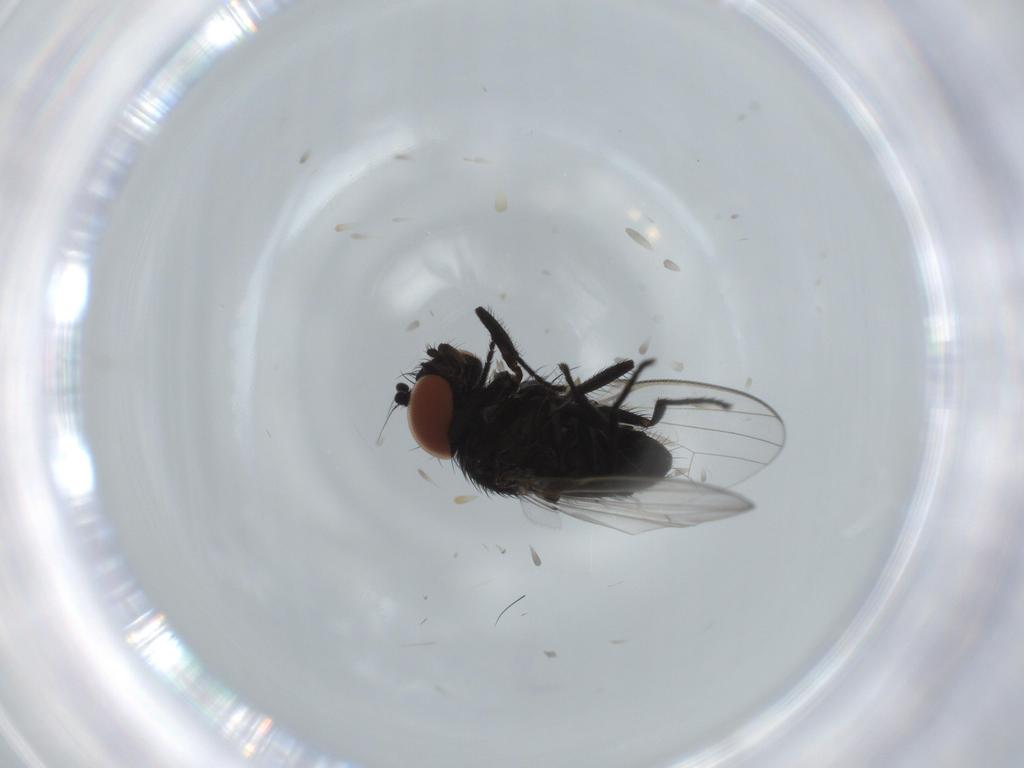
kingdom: Animalia
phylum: Arthropoda
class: Insecta
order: Diptera
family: Milichiidae
